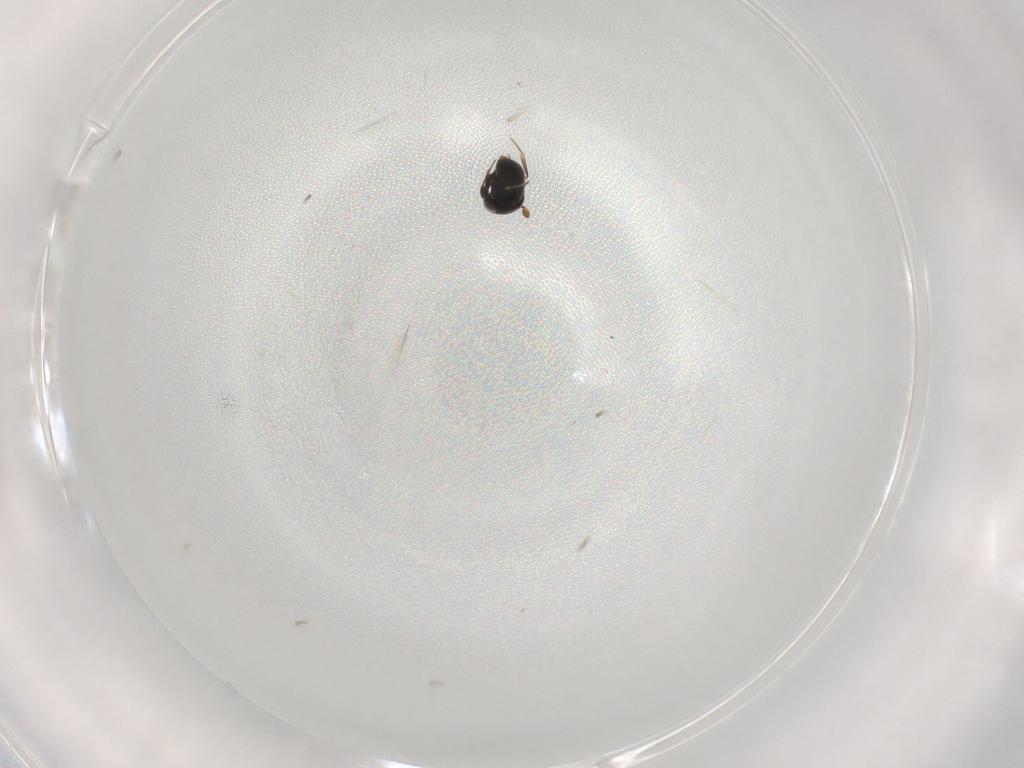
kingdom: Animalia
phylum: Arthropoda
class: Insecta
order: Hymenoptera
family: Scelionidae
